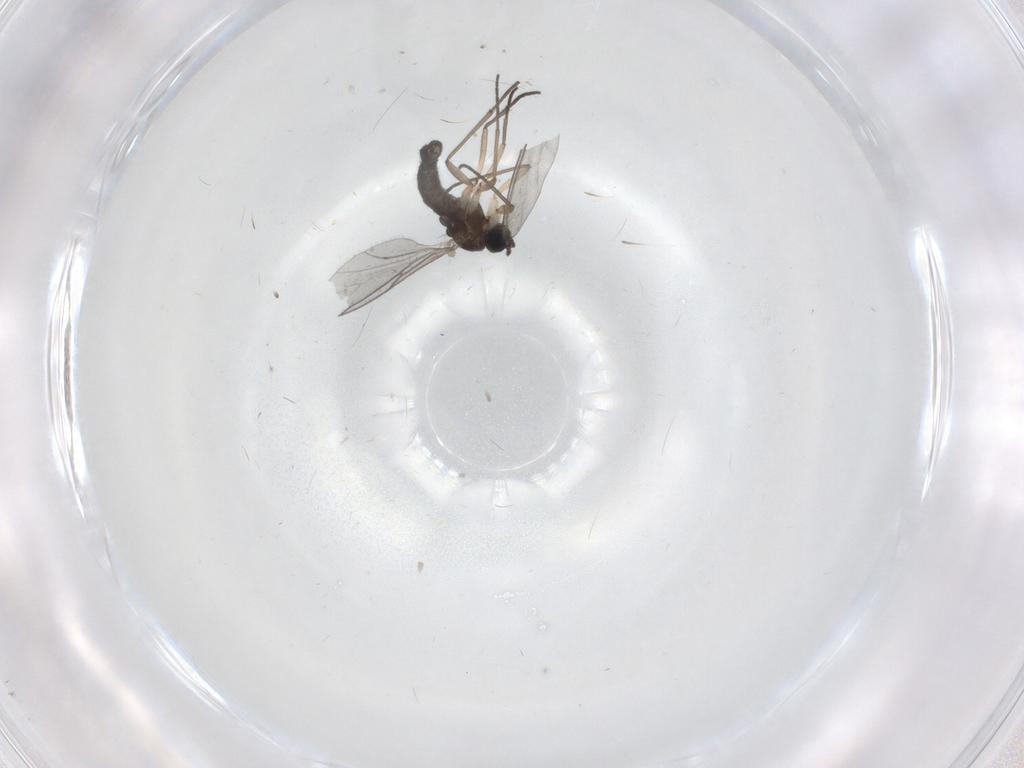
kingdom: Animalia
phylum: Arthropoda
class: Insecta
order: Diptera
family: Sciaridae
